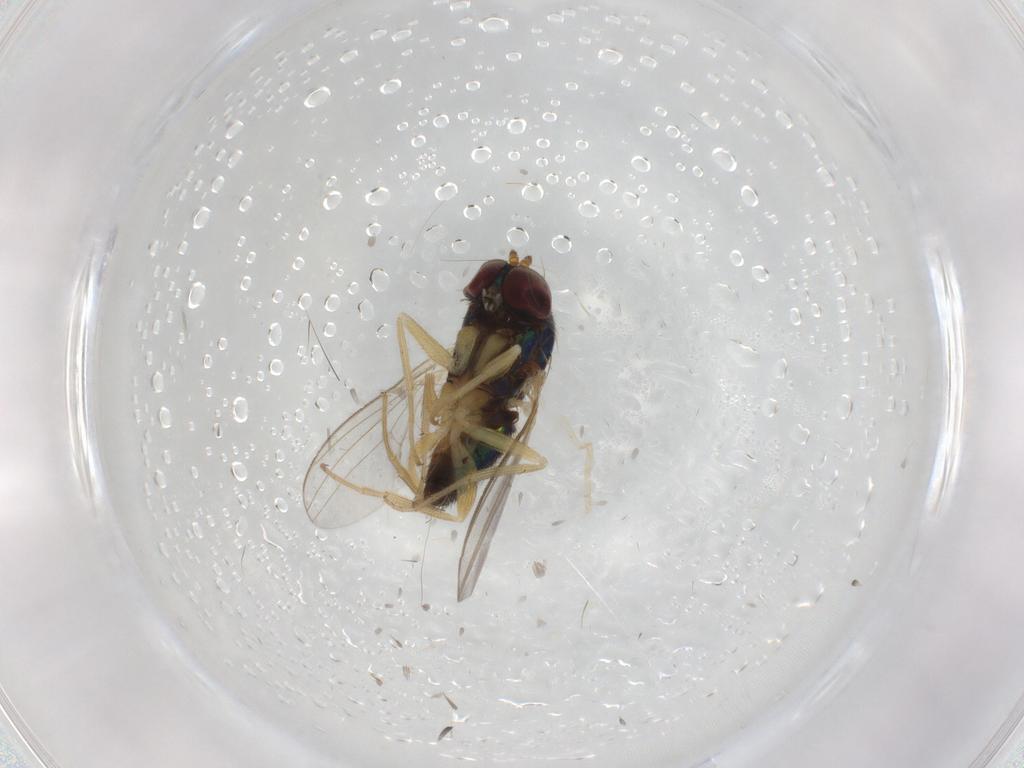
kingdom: Animalia
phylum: Arthropoda
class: Insecta
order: Diptera
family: Dolichopodidae
